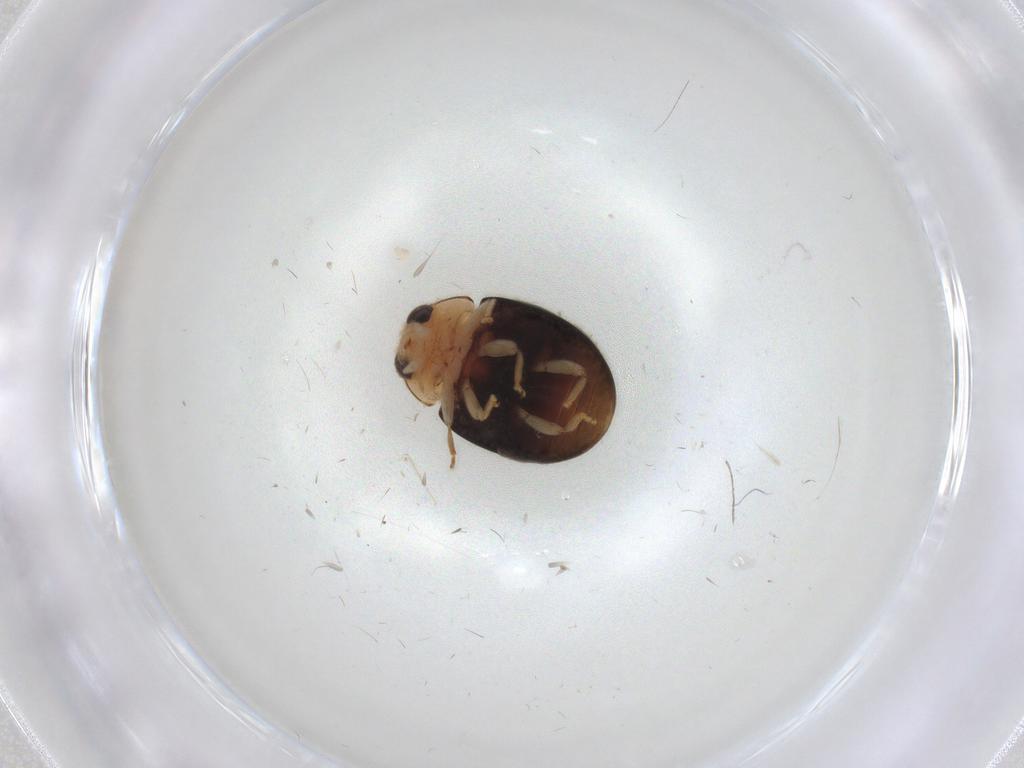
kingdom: Animalia
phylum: Arthropoda
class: Insecta
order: Coleoptera
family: Coccinellidae
